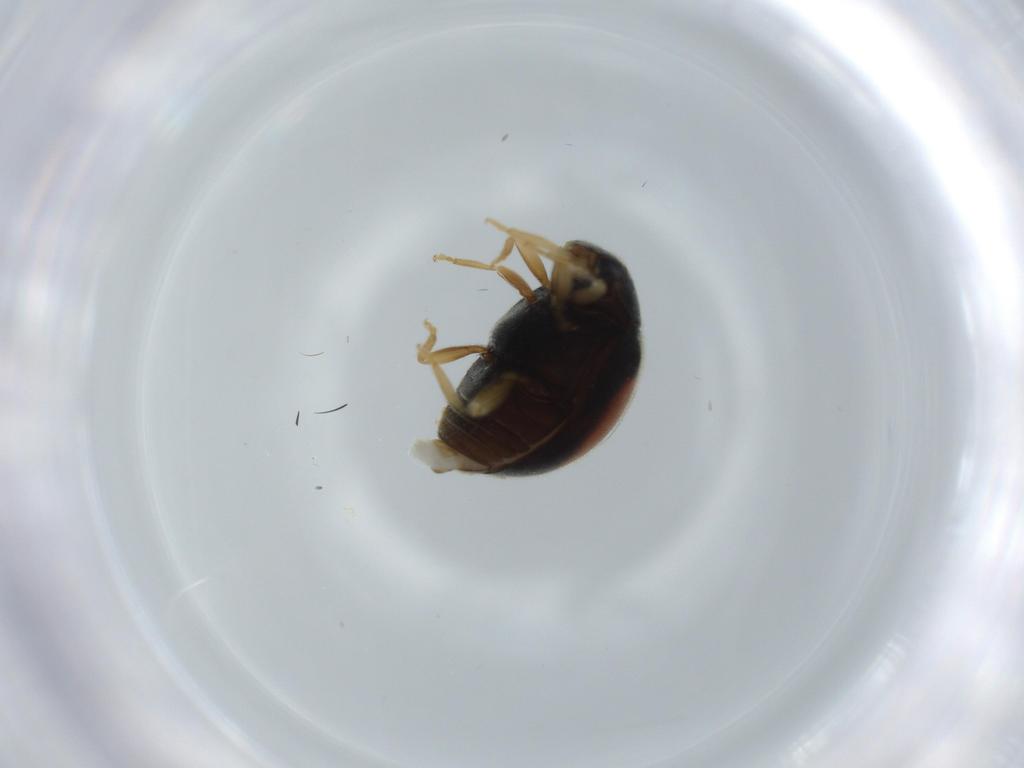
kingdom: Animalia
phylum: Arthropoda
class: Insecta
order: Coleoptera
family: Coccinellidae
